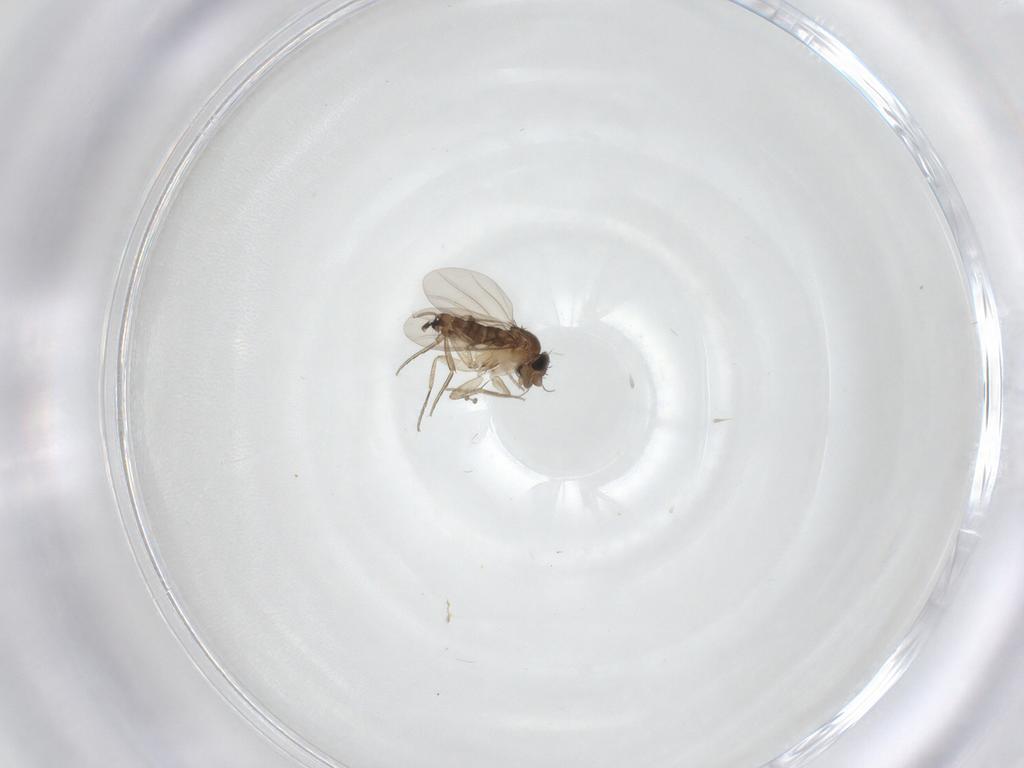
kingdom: Animalia
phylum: Arthropoda
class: Insecta
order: Diptera
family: Phoridae
